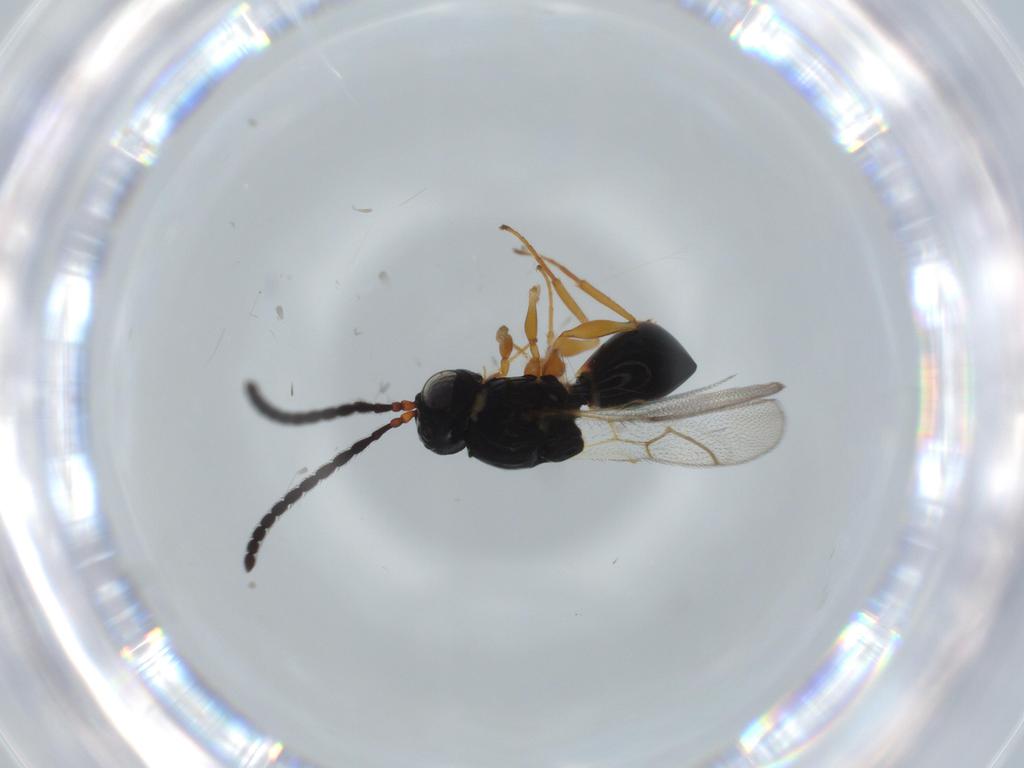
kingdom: Animalia
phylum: Arthropoda
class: Insecta
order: Hymenoptera
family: Figitidae
